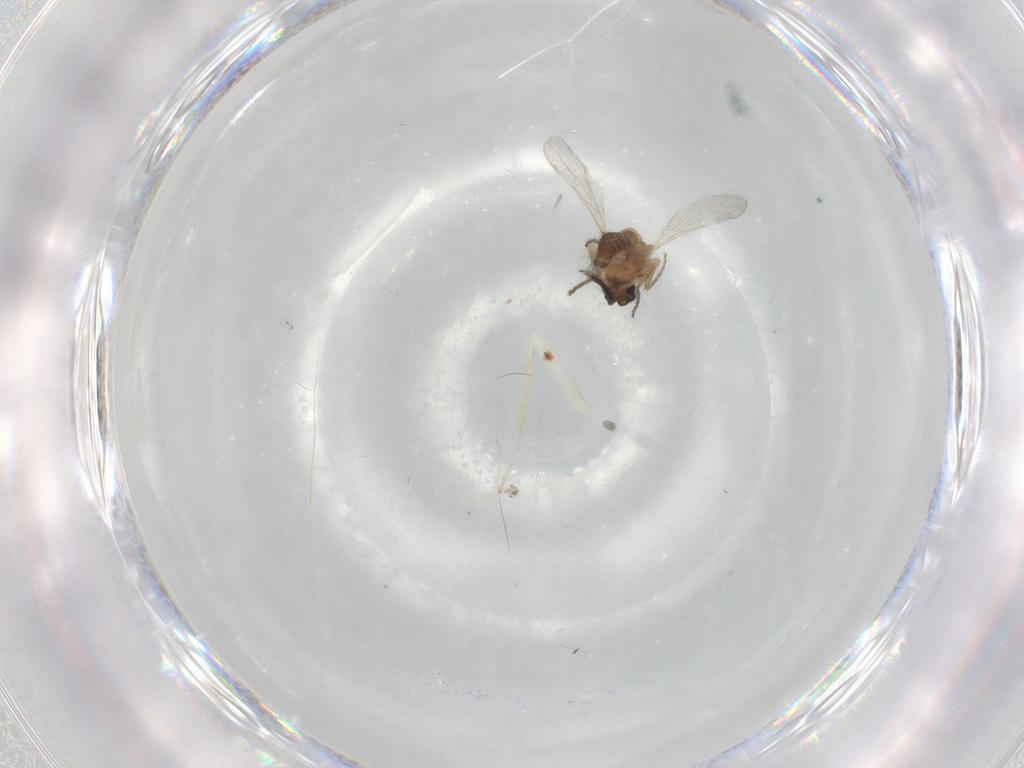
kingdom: Animalia
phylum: Arthropoda
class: Insecta
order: Diptera
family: Ceratopogonidae
